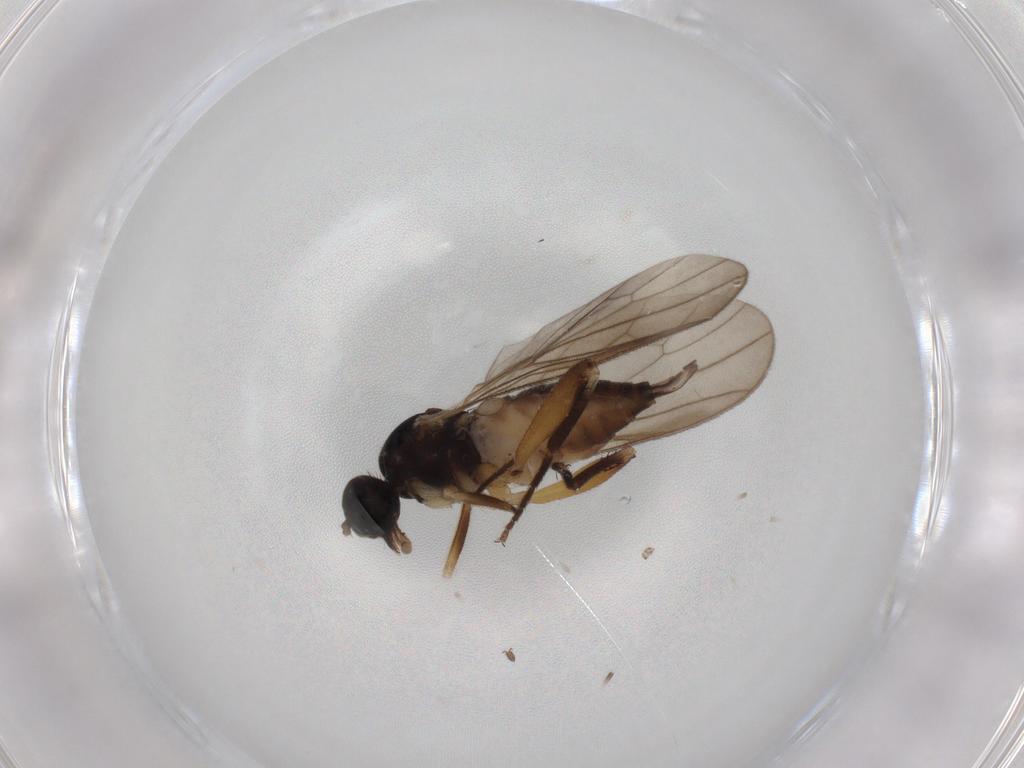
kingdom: Animalia
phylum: Arthropoda
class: Insecta
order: Diptera
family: Hybotidae
